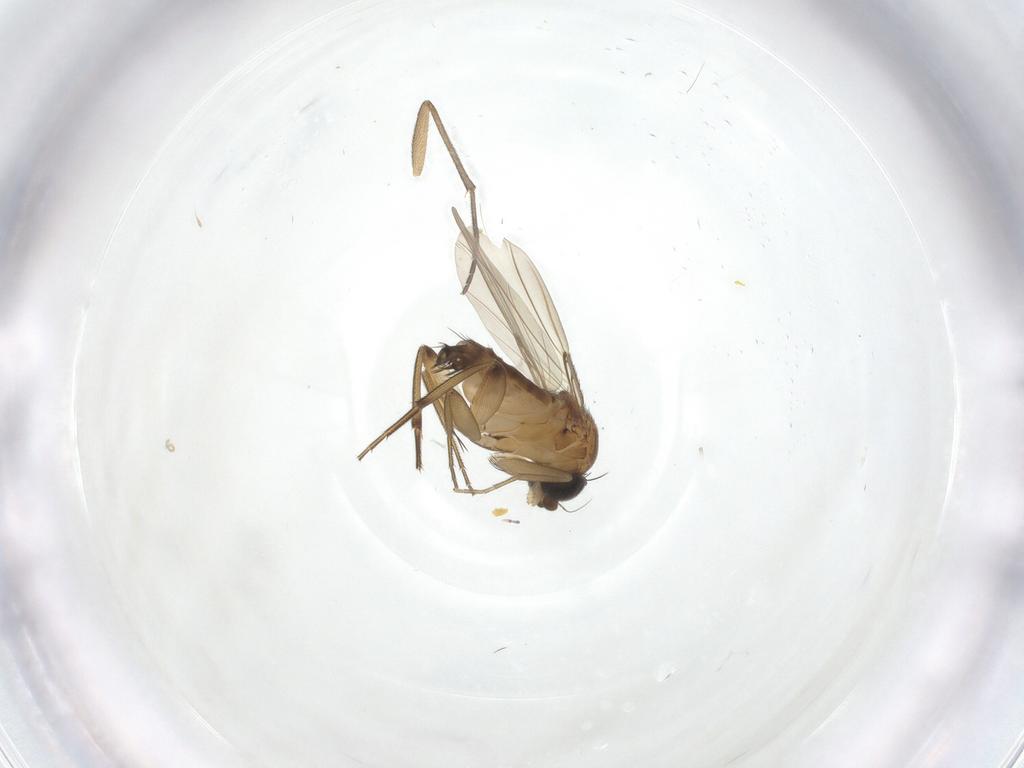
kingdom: Animalia
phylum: Arthropoda
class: Insecta
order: Diptera
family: Phoridae
